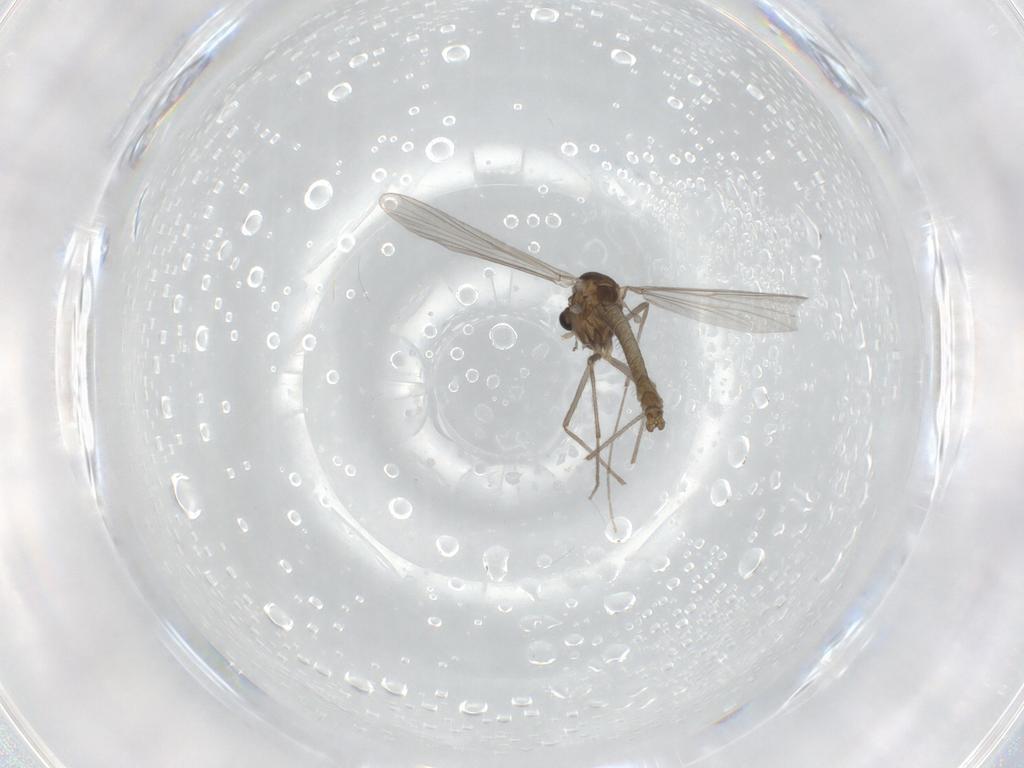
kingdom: Animalia
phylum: Arthropoda
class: Insecta
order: Diptera
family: Chironomidae
